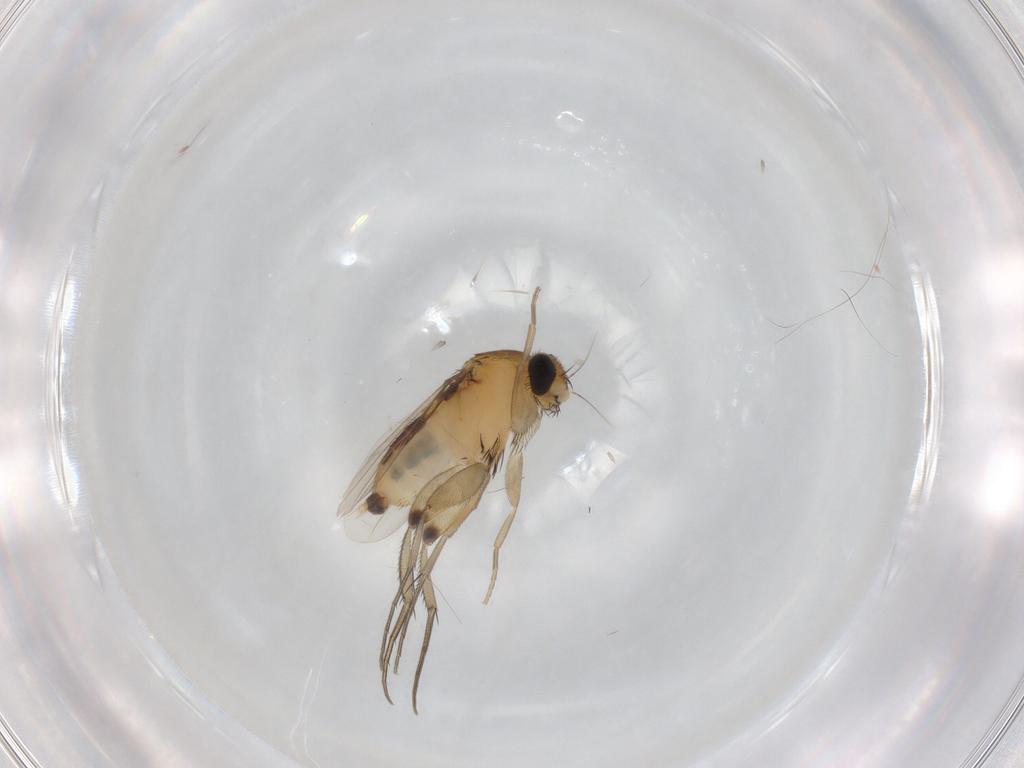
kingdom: Animalia
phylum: Arthropoda
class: Insecta
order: Diptera
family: Phoridae
